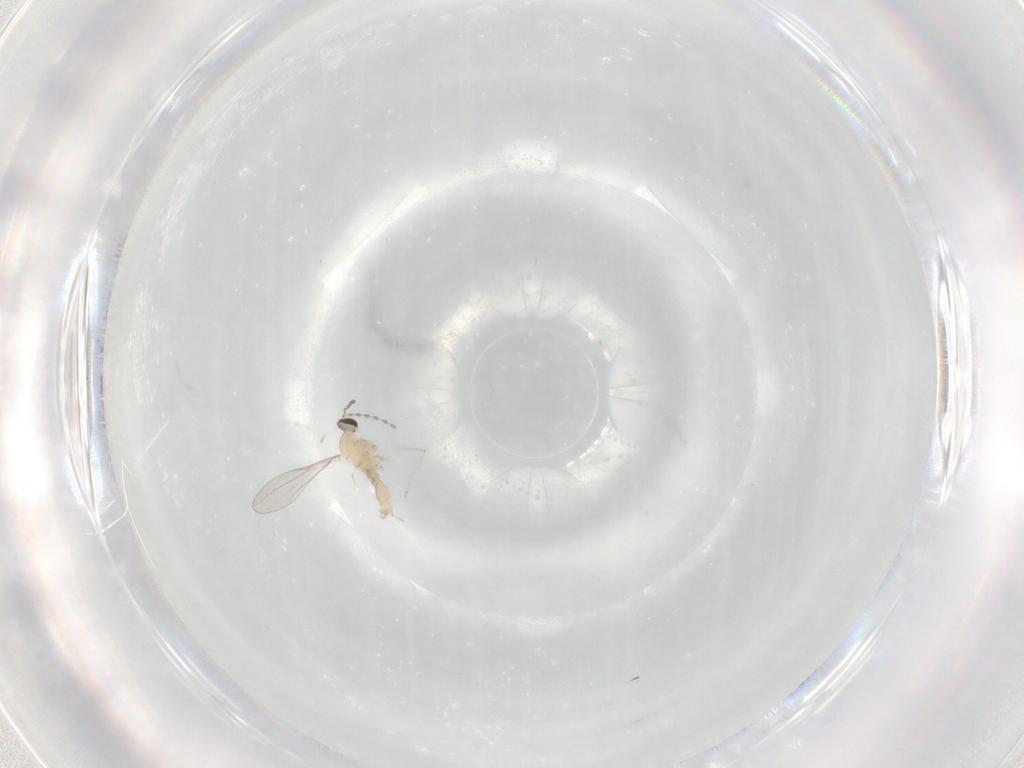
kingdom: Animalia
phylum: Arthropoda
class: Insecta
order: Diptera
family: Cecidomyiidae
